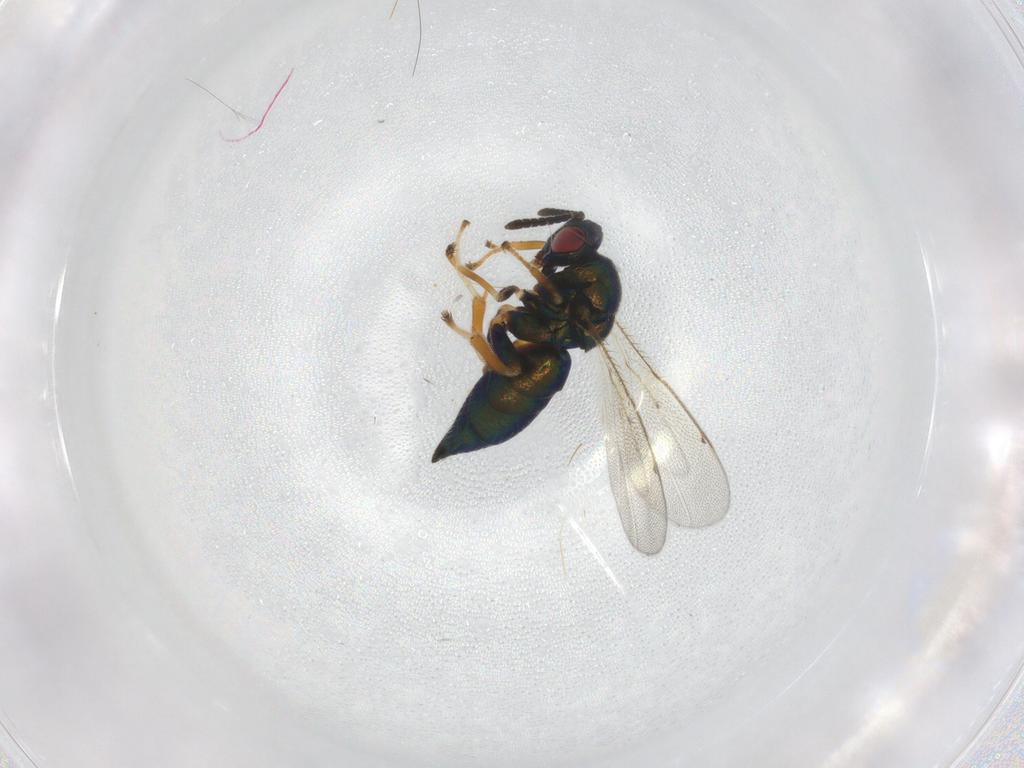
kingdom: Animalia
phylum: Arthropoda
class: Insecta
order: Hymenoptera
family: Ormyridae
